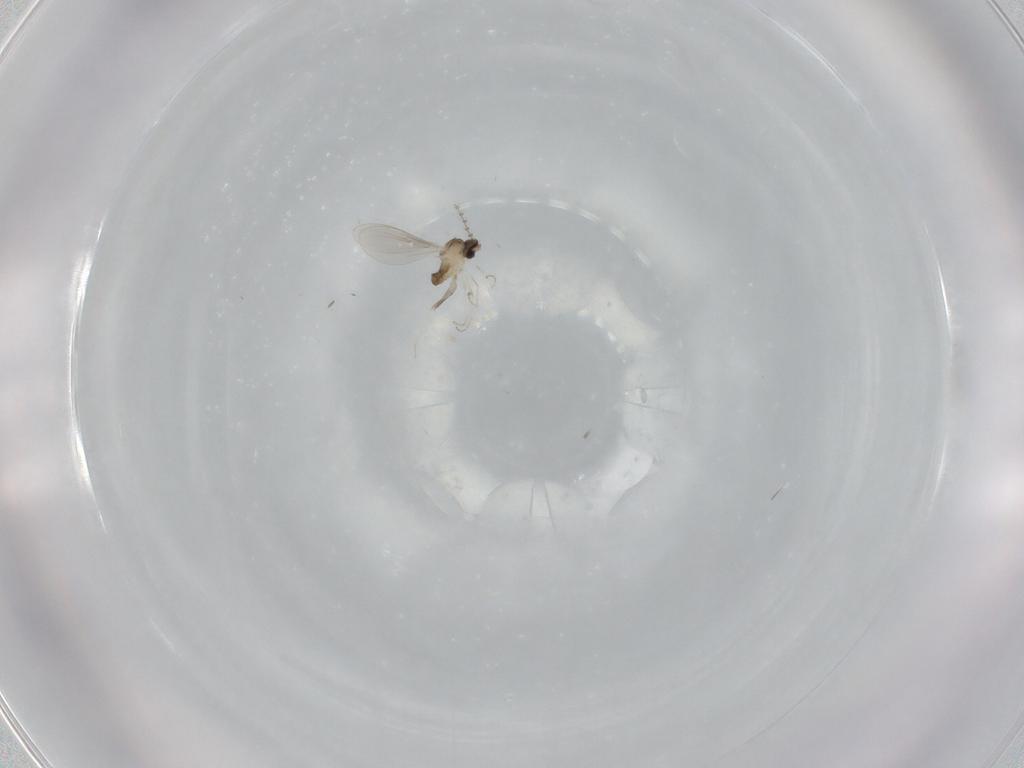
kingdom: Animalia
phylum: Arthropoda
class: Insecta
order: Diptera
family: Cecidomyiidae
